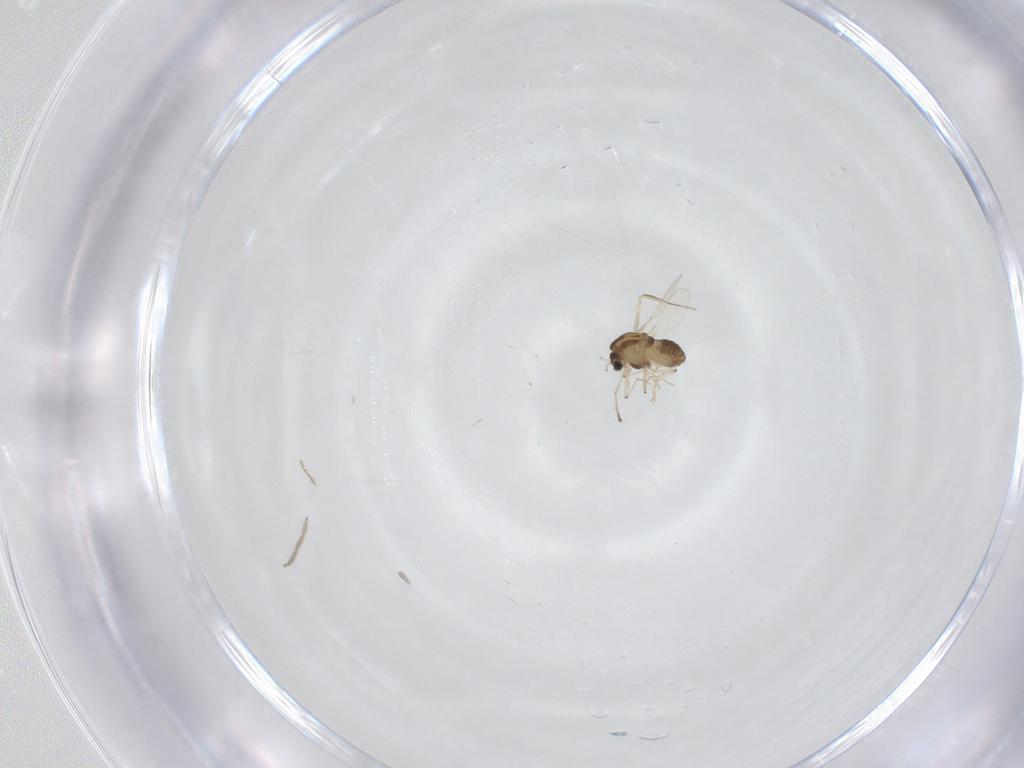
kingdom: Animalia
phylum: Arthropoda
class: Insecta
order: Diptera
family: Chironomidae
